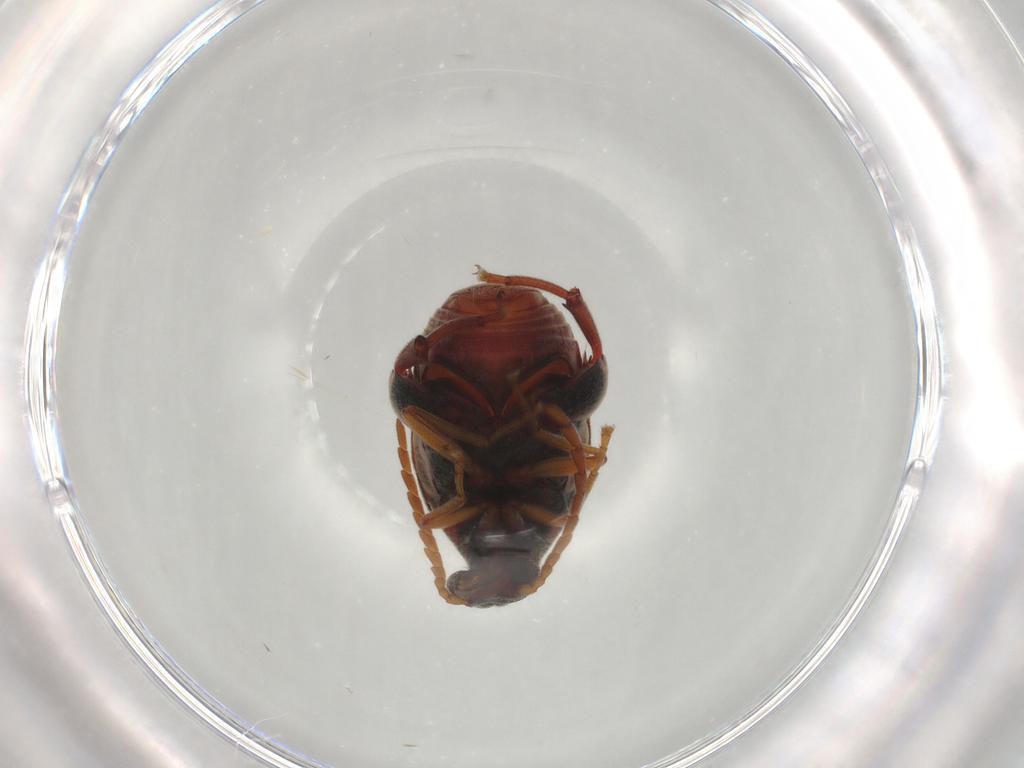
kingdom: Animalia
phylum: Arthropoda
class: Insecta
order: Coleoptera
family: Chrysomelidae
